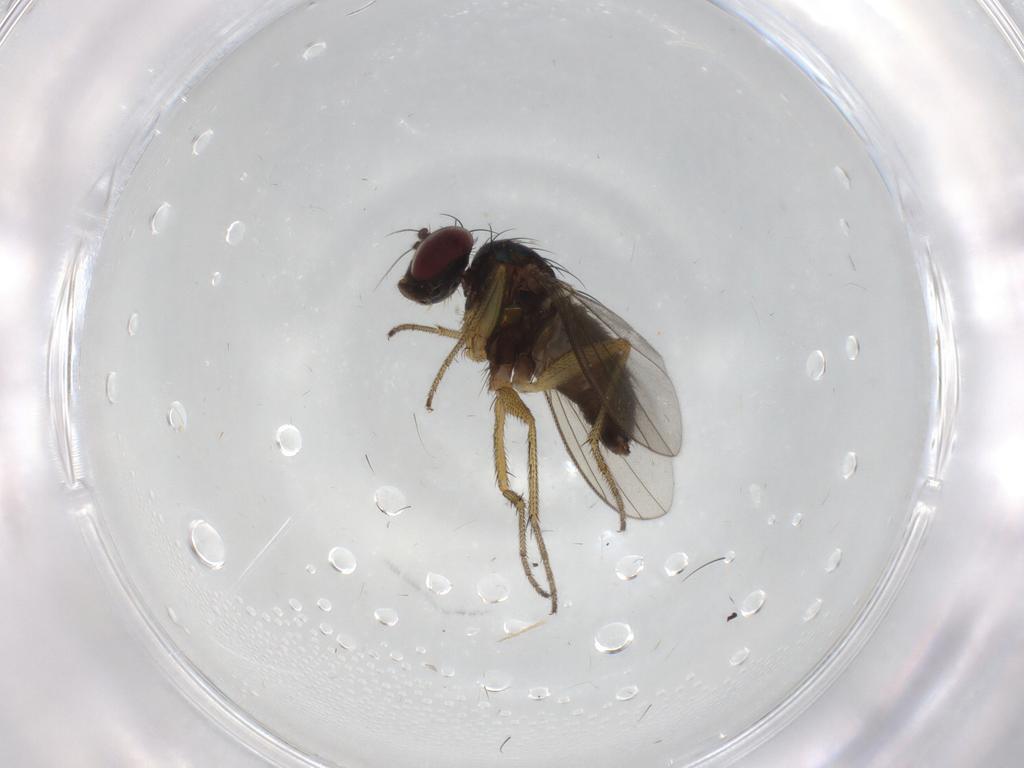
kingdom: Animalia
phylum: Arthropoda
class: Insecta
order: Diptera
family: Dolichopodidae
